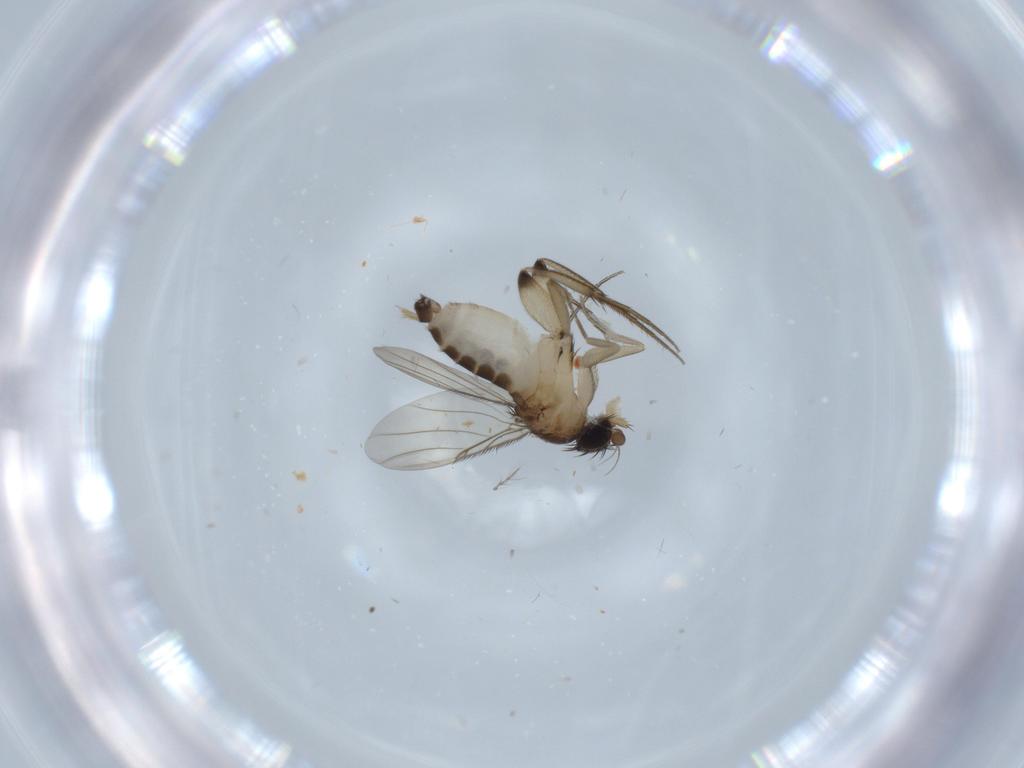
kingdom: Animalia
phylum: Arthropoda
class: Insecta
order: Diptera
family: Phoridae
